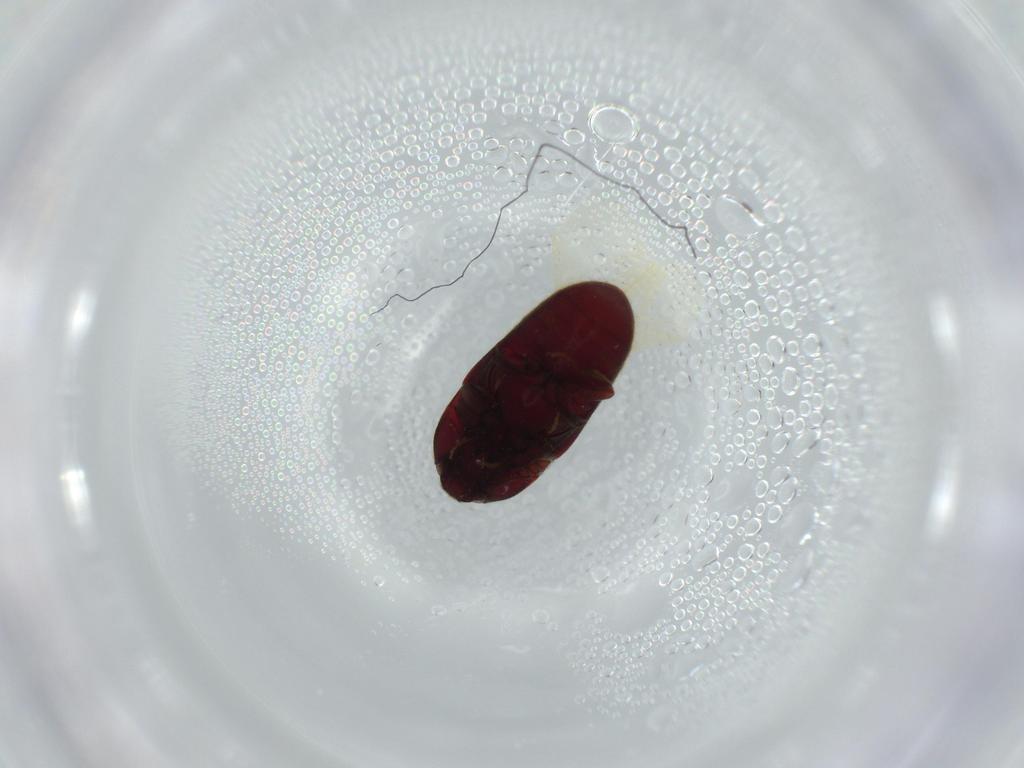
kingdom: Animalia
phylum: Arthropoda
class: Insecta
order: Coleoptera
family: Throscidae
